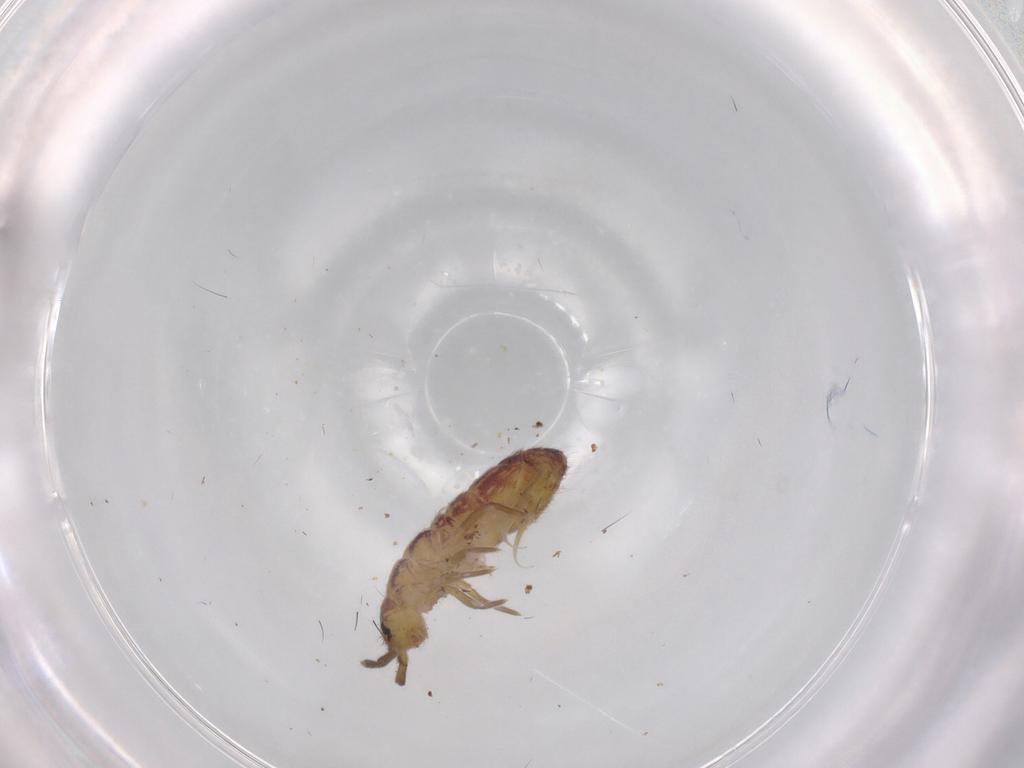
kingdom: Animalia
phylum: Arthropoda
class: Collembola
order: Entomobryomorpha
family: Isotomidae
